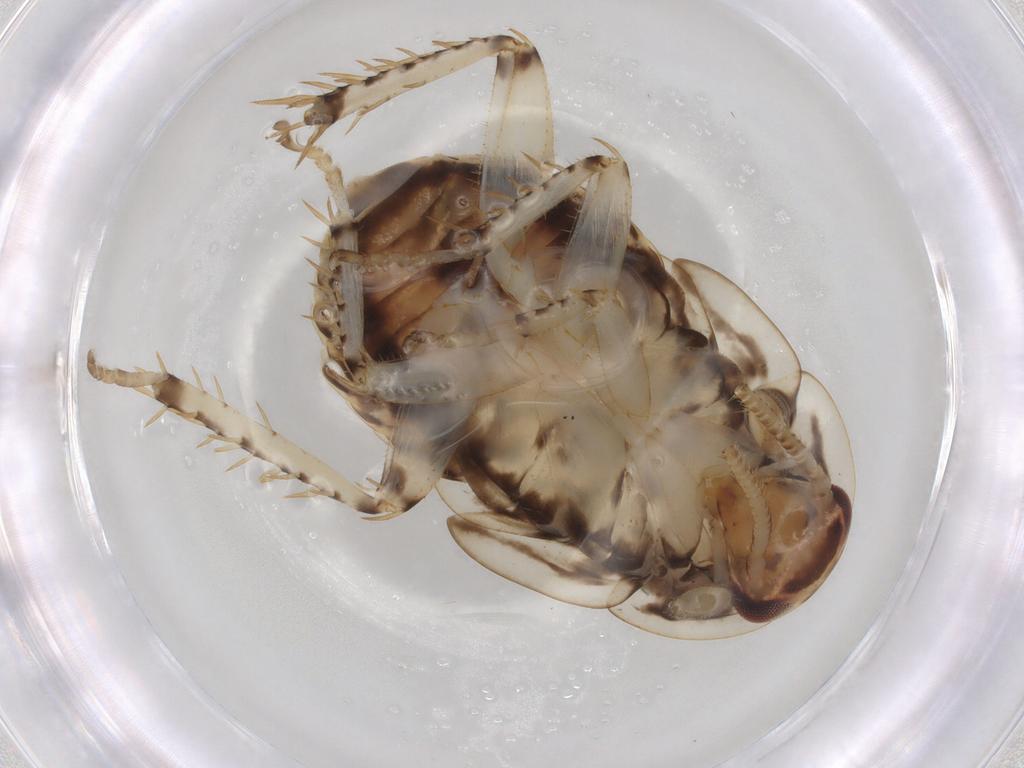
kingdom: Animalia
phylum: Arthropoda
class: Insecta
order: Blattodea
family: Ectobiidae
